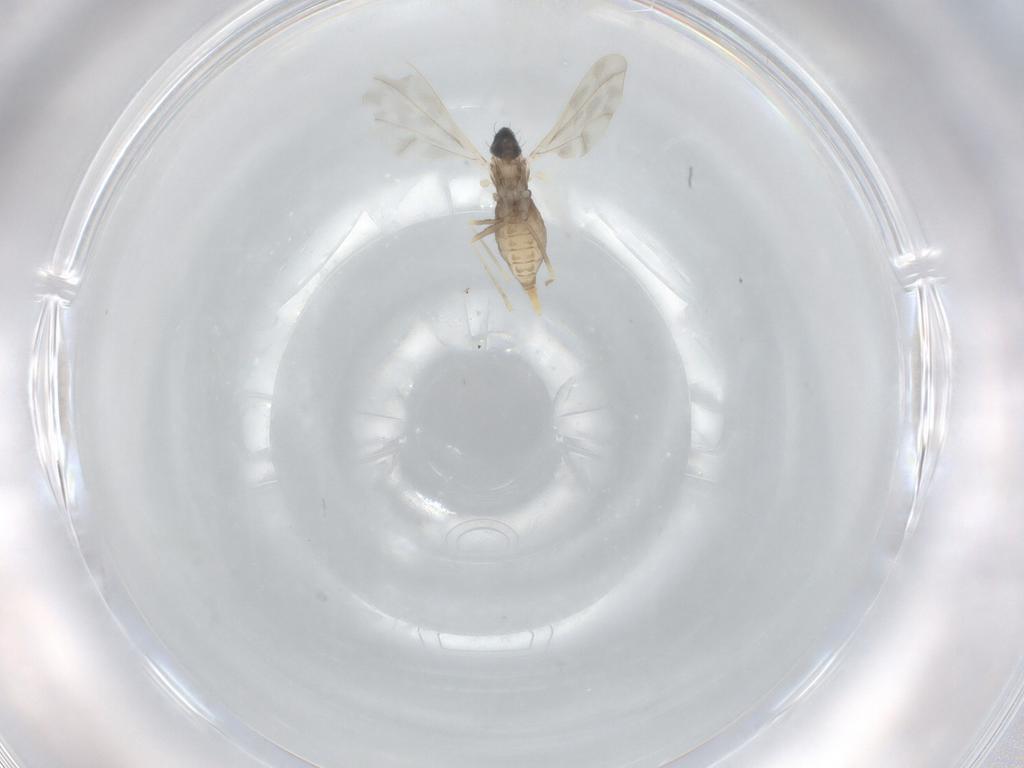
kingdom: Animalia
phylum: Arthropoda
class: Insecta
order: Diptera
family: Cecidomyiidae
